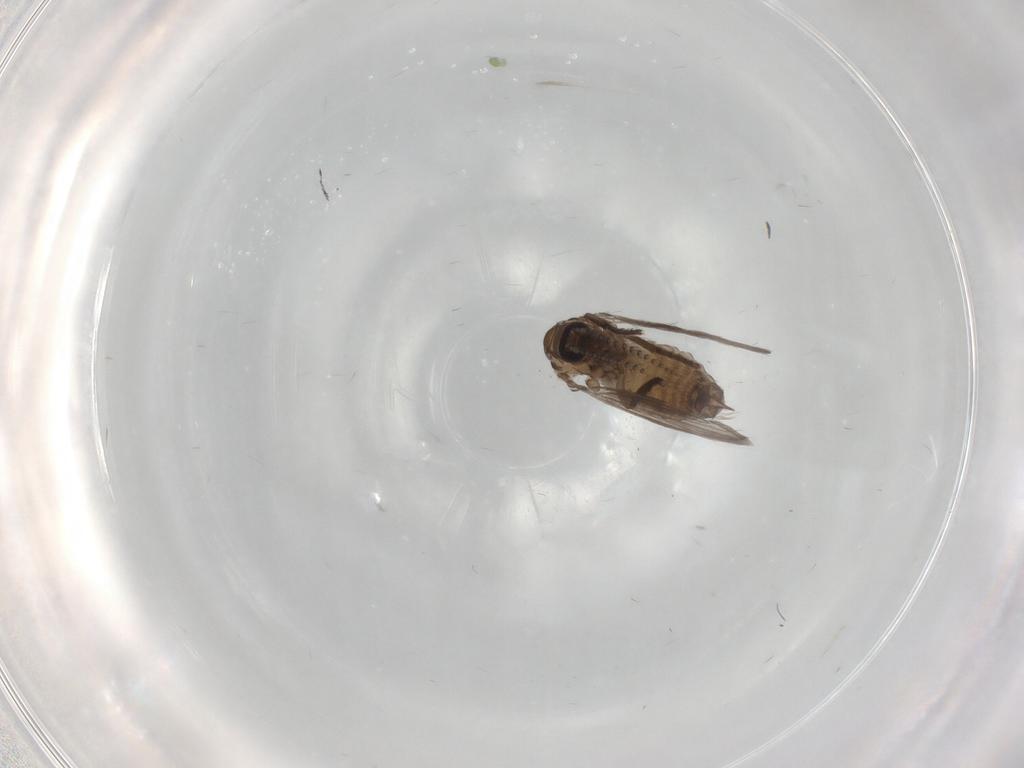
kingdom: Animalia
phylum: Arthropoda
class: Insecta
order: Diptera
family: Psychodidae
